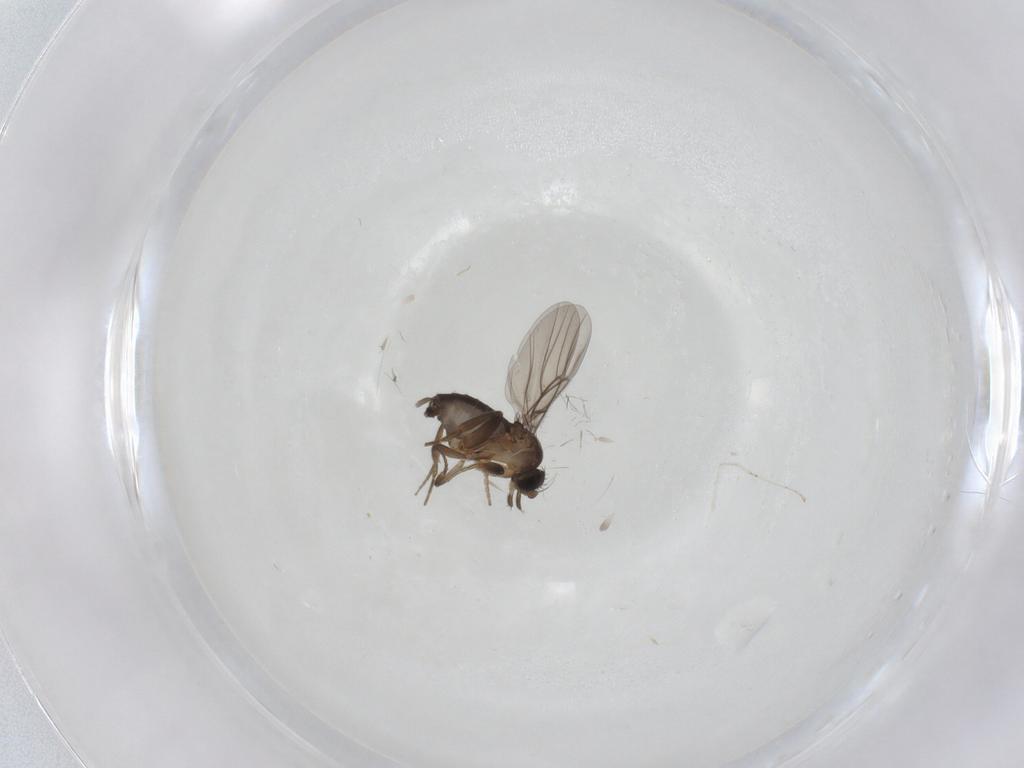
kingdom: Animalia
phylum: Arthropoda
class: Insecta
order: Diptera
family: Phoridae
